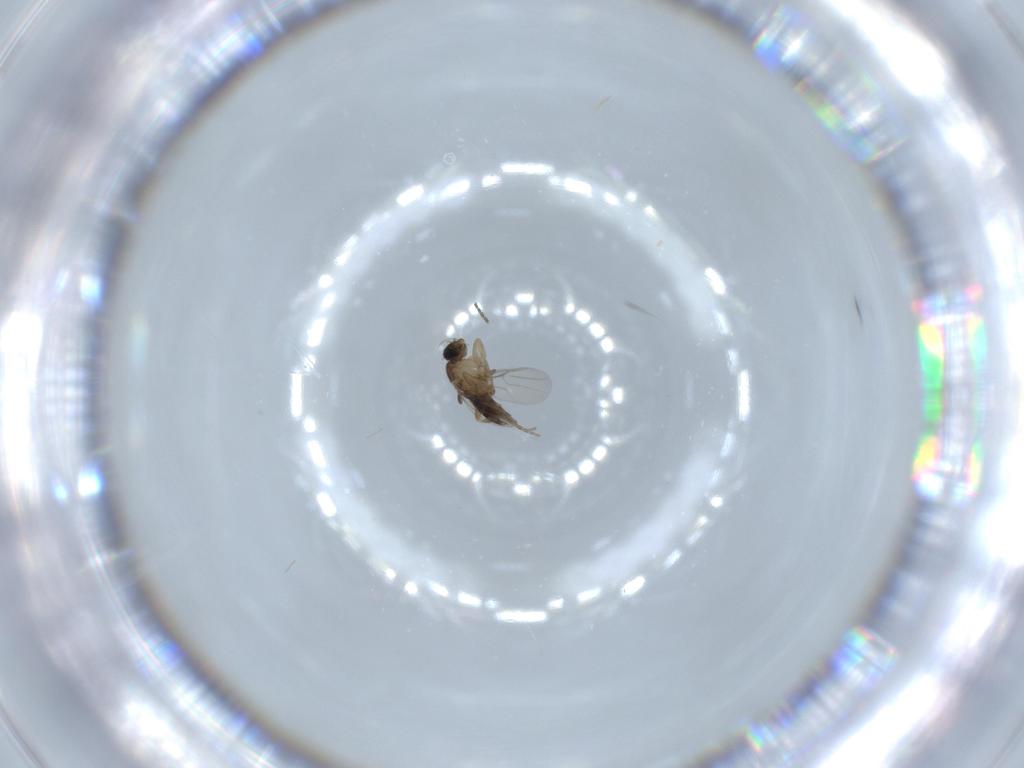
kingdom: Animalia
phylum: Arthropoda
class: Insecta
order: Diptera
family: Phoridae
